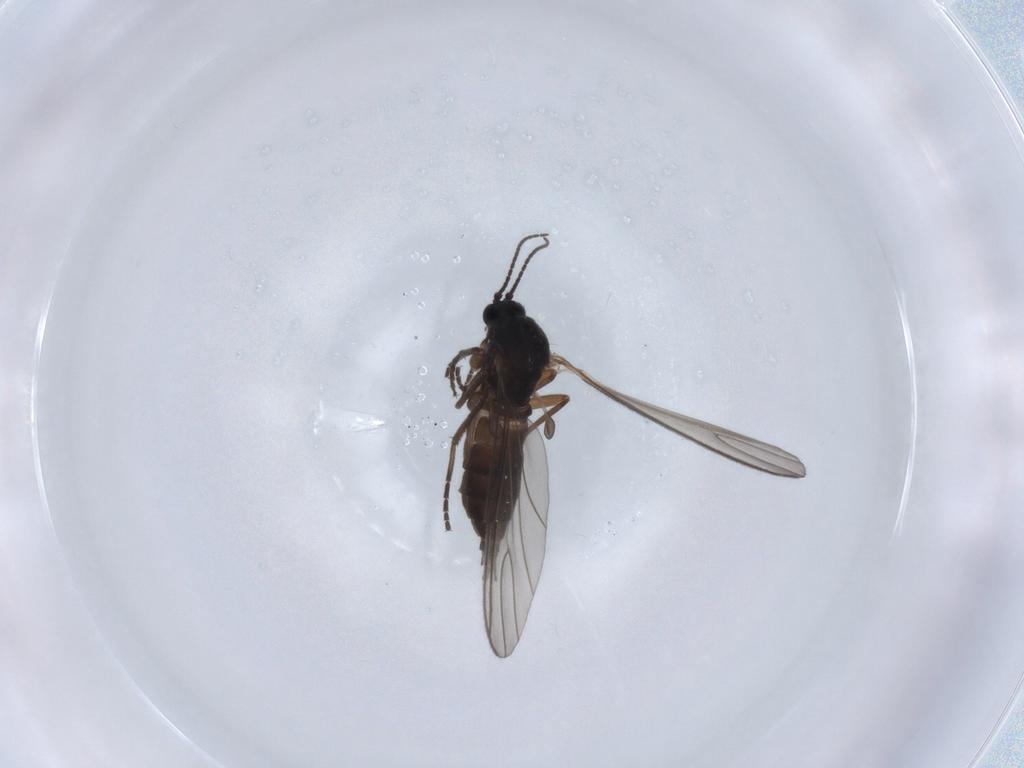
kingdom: Animalia
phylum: Arthropoda
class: Insecta
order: Diptera
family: Sciaridae
